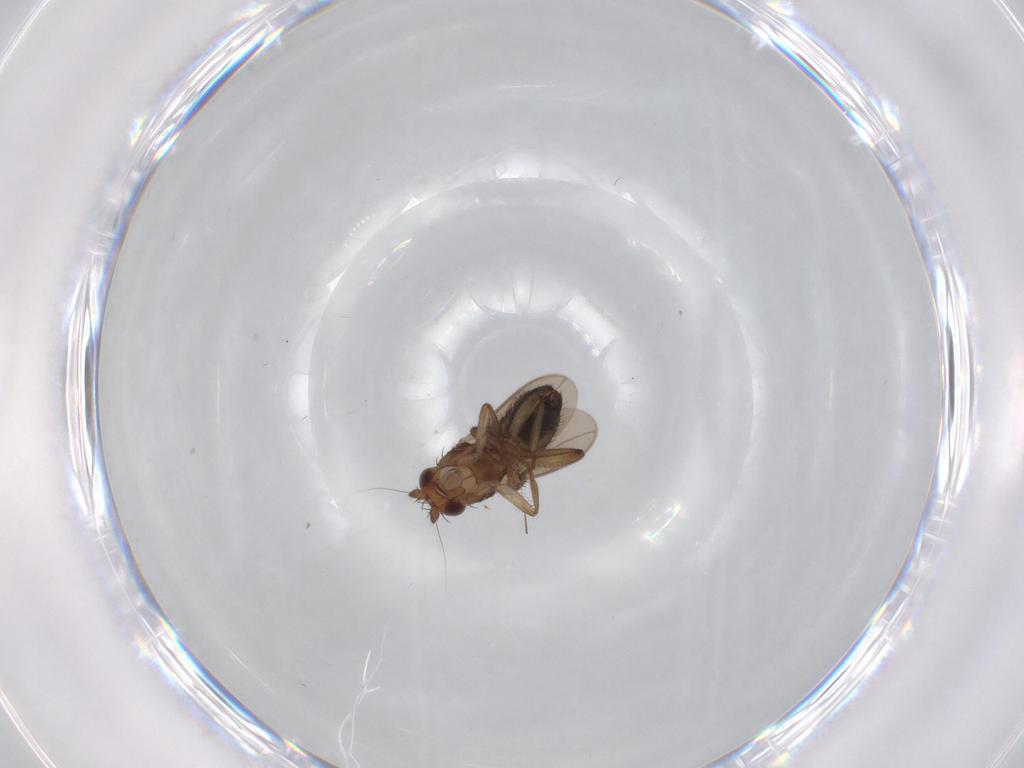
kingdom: Animalia
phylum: Arthropoda
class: Insecta
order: Diptera
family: Sphaeroceridae
